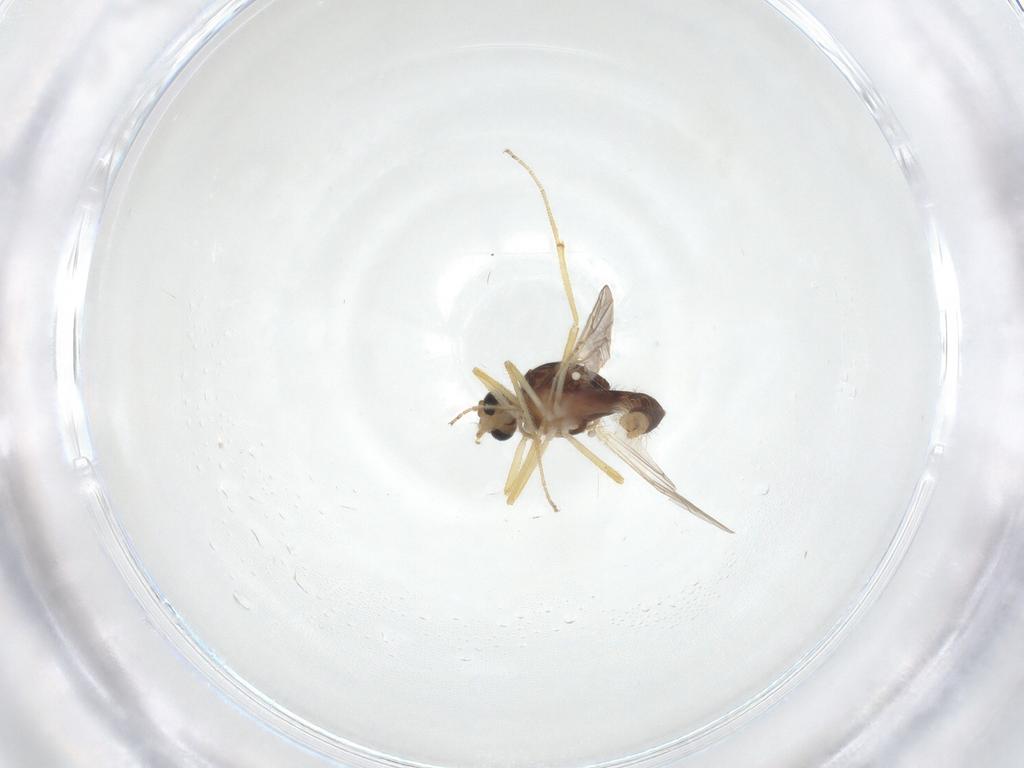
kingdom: Animalia
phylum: Arthropoda
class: Insecta
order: Diptera
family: Ceratopogonidae
